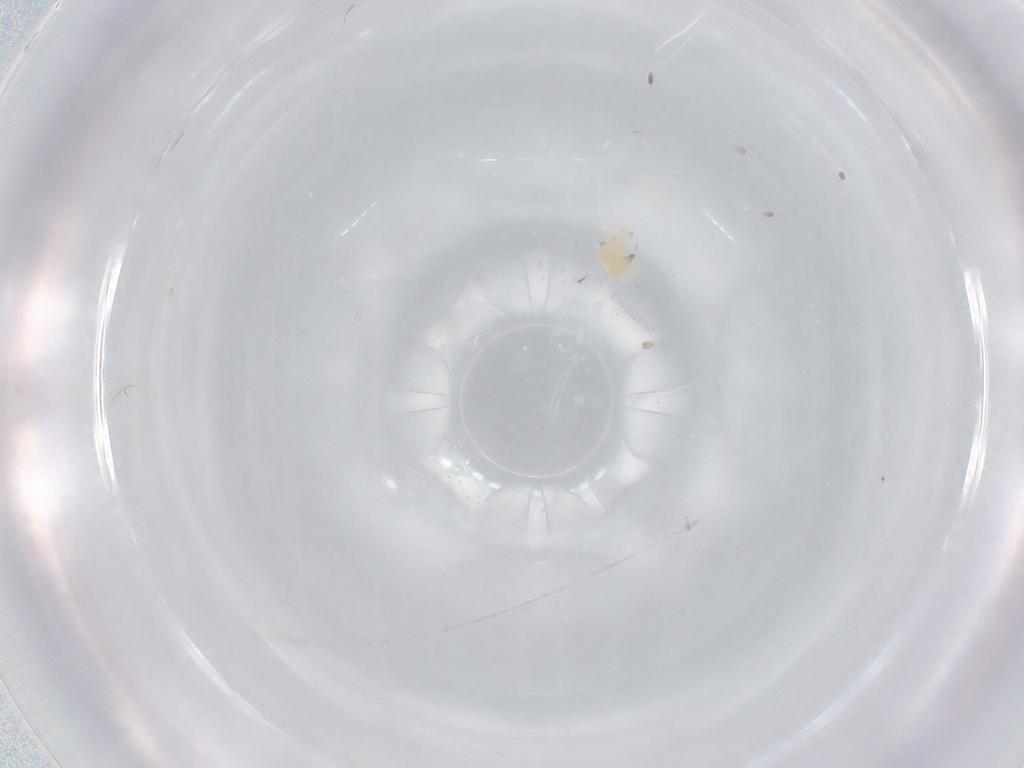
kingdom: Animalia
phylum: Arthropoda
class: Arachnida
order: Trombidiformes
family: Anystidae
